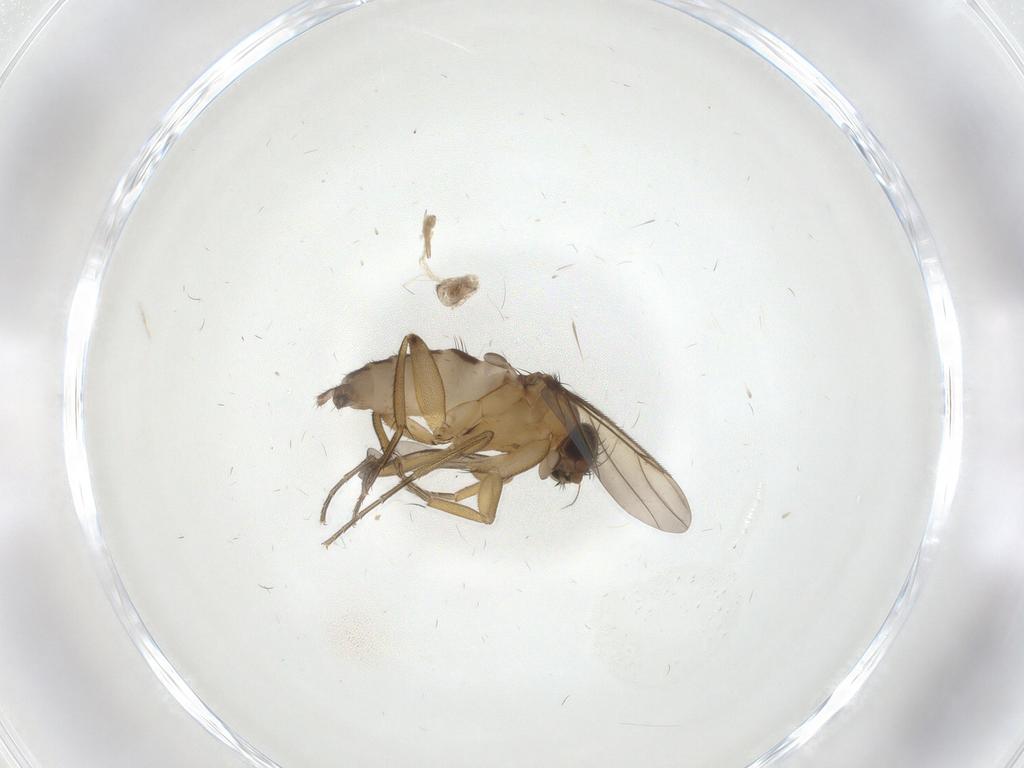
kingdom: Animalia
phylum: Arthropoda
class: Insecta
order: Diptera
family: Phoridae
